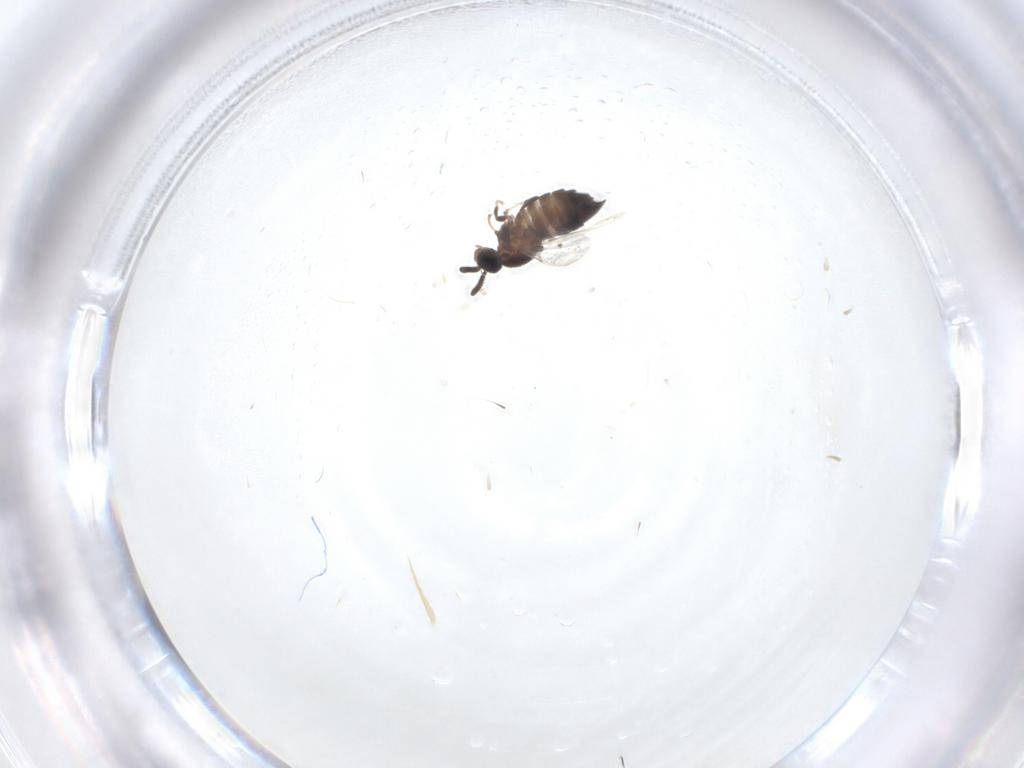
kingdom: Animalia
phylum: Arthropoda
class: Insecta
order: Diptera
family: Scatopsidae
